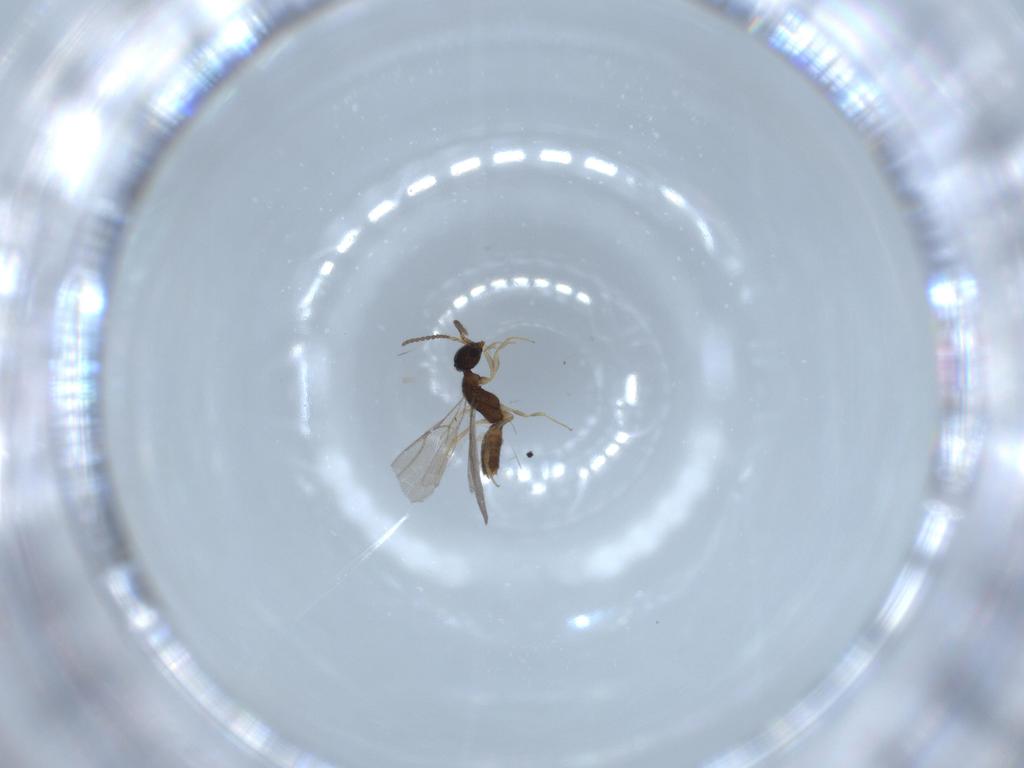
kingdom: Animalia
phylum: Arthropoda
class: Insecta
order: Hymenoptera
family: Bethylidae
